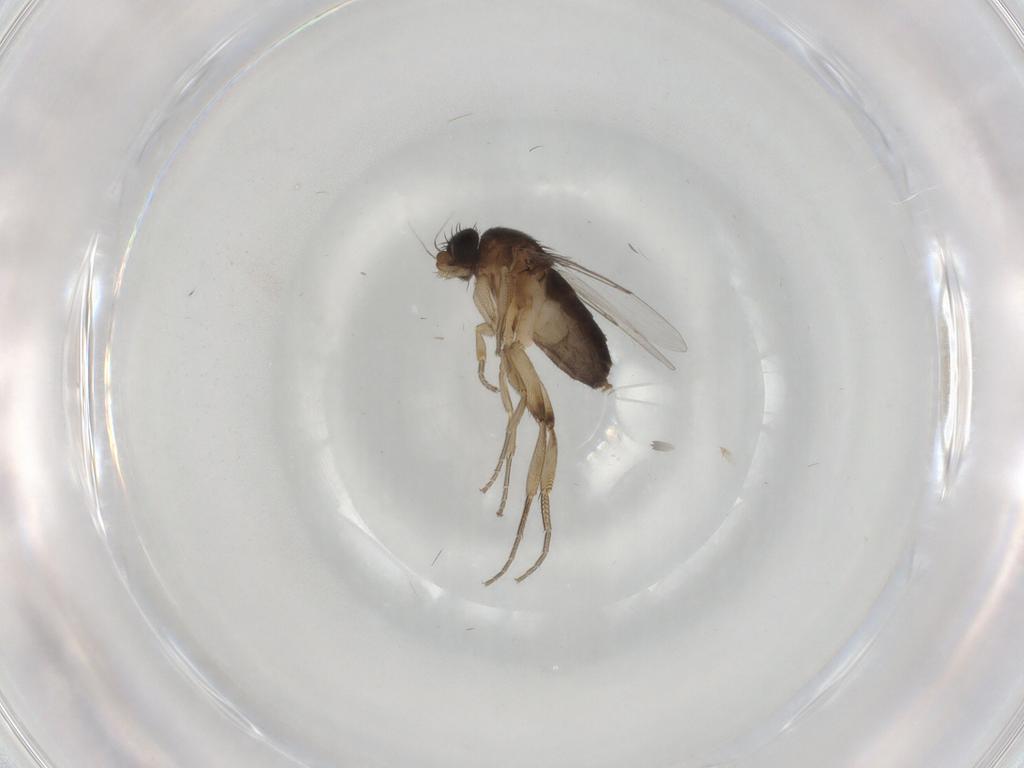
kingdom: Animalia
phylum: Arthropoda
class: Insecta
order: Diptera
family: Phoridae
